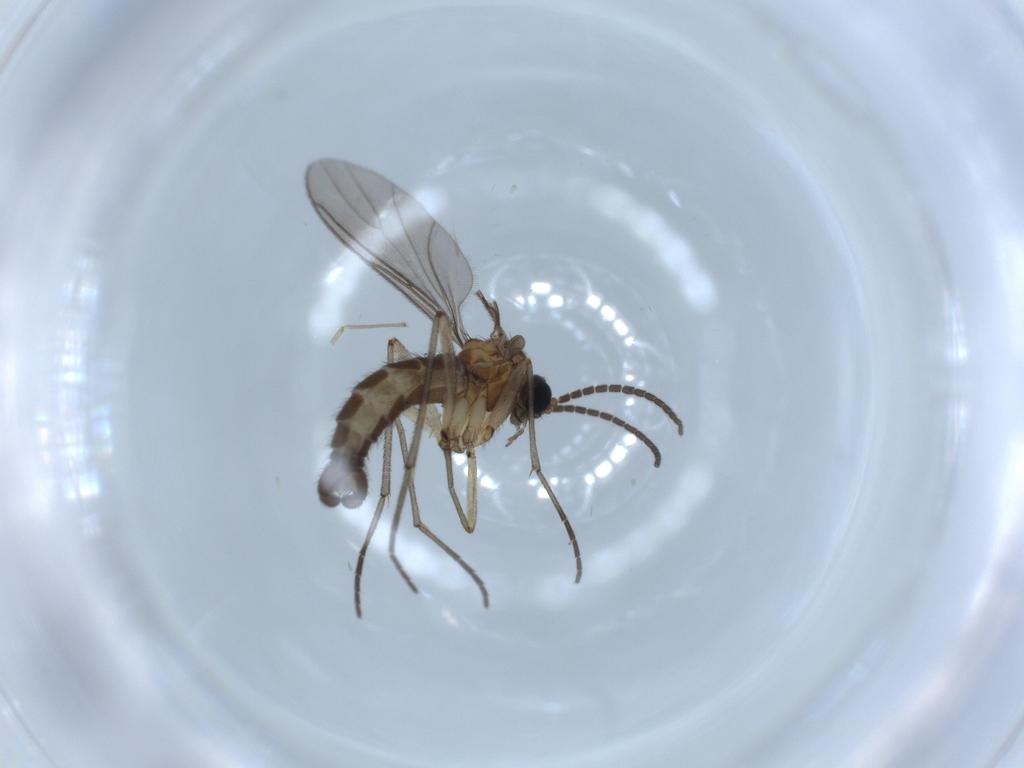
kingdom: Animalia
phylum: Arthropoda
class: Insecta
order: Diptera
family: Sciaridae
